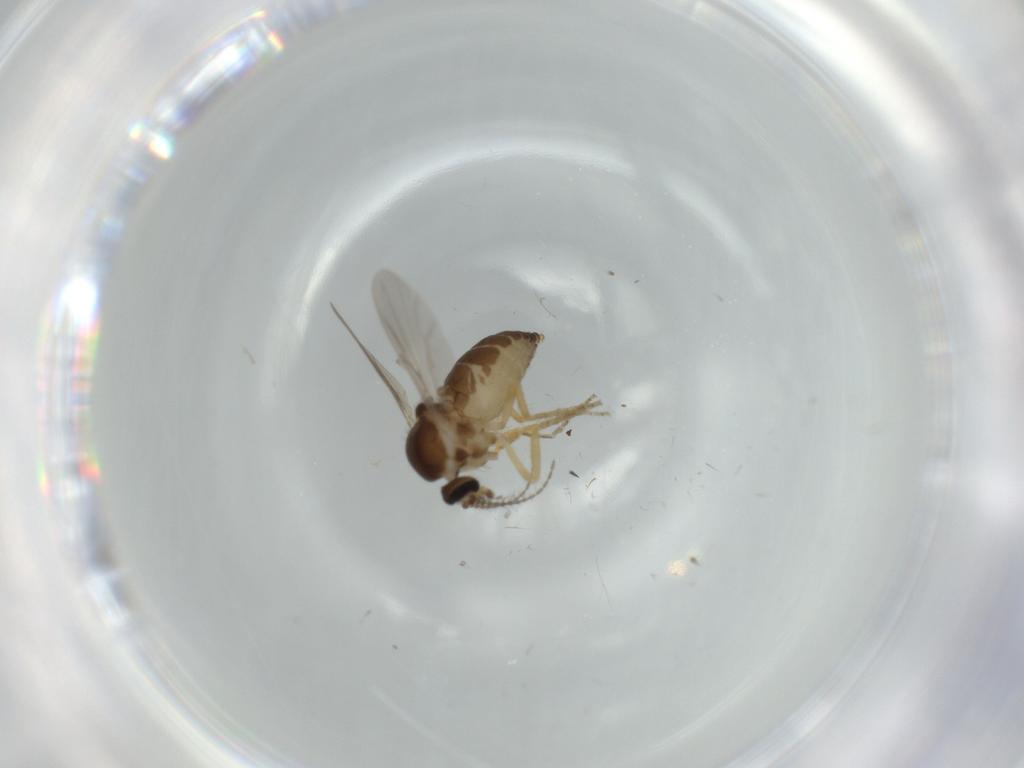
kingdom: Animalia
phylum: Arthropoda
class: Insecta
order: Diptera
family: Ceratopogonidae
